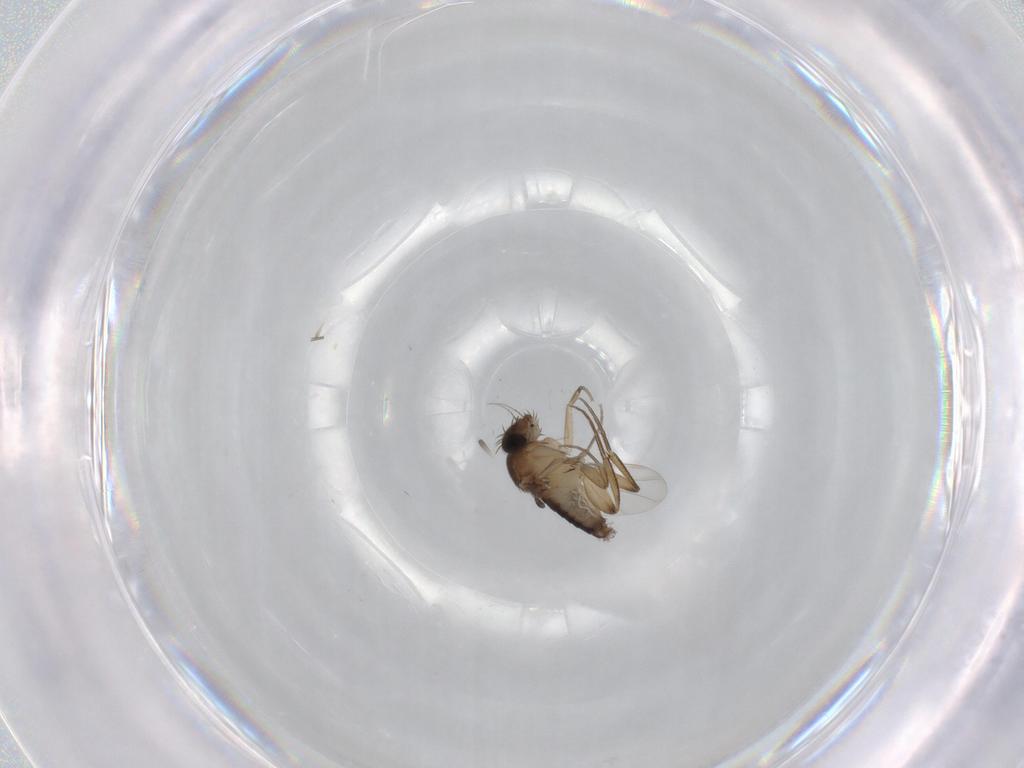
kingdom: Animalia
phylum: Arthropoda
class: Insecta
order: Diptera
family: Phoridae
